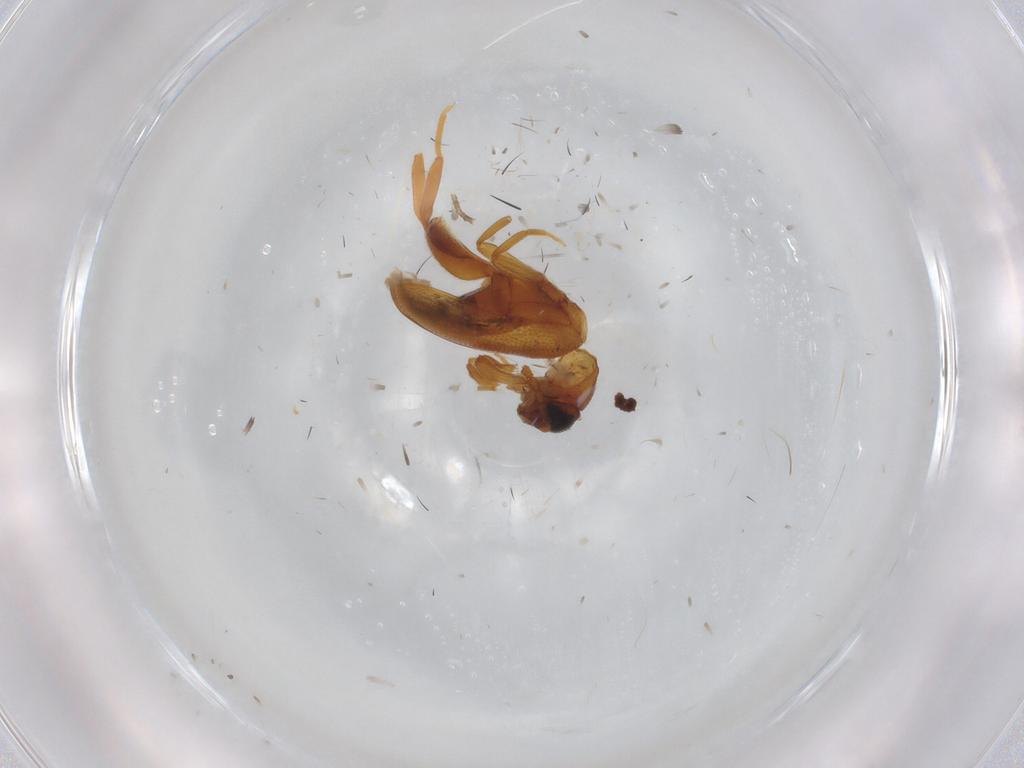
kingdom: Animalia
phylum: Arthropoda
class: Insecta
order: Coleoptera
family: Aderidae
